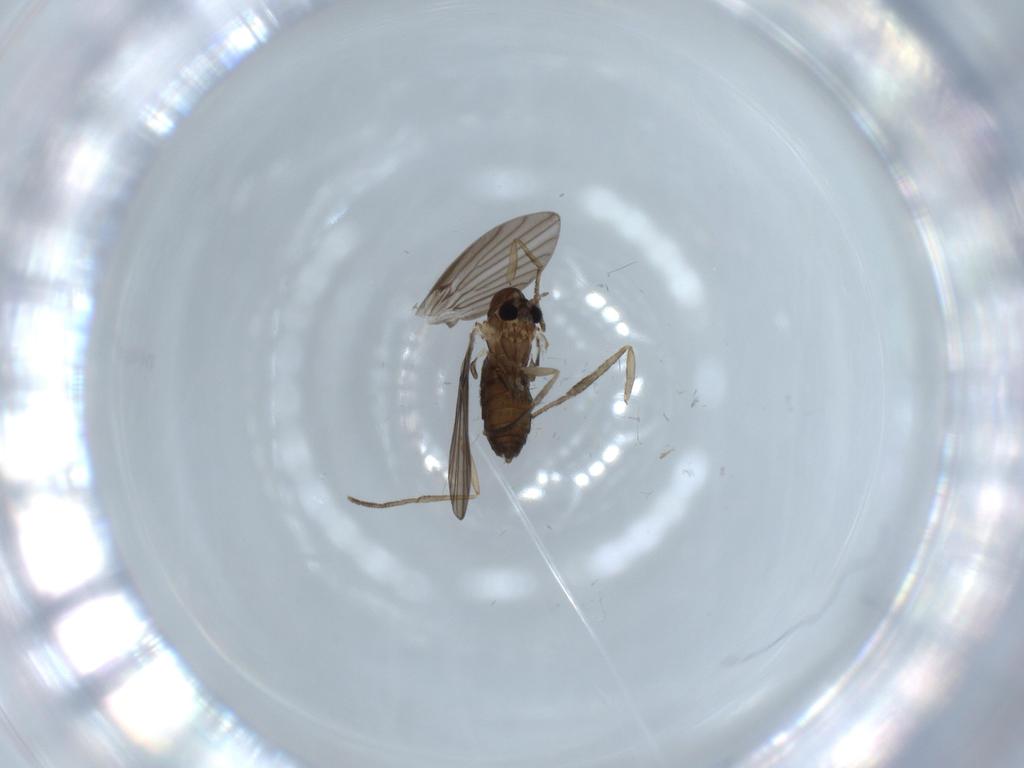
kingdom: Animalia
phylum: Arthropoda
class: Insecta
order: Diptera
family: Psychodidae
